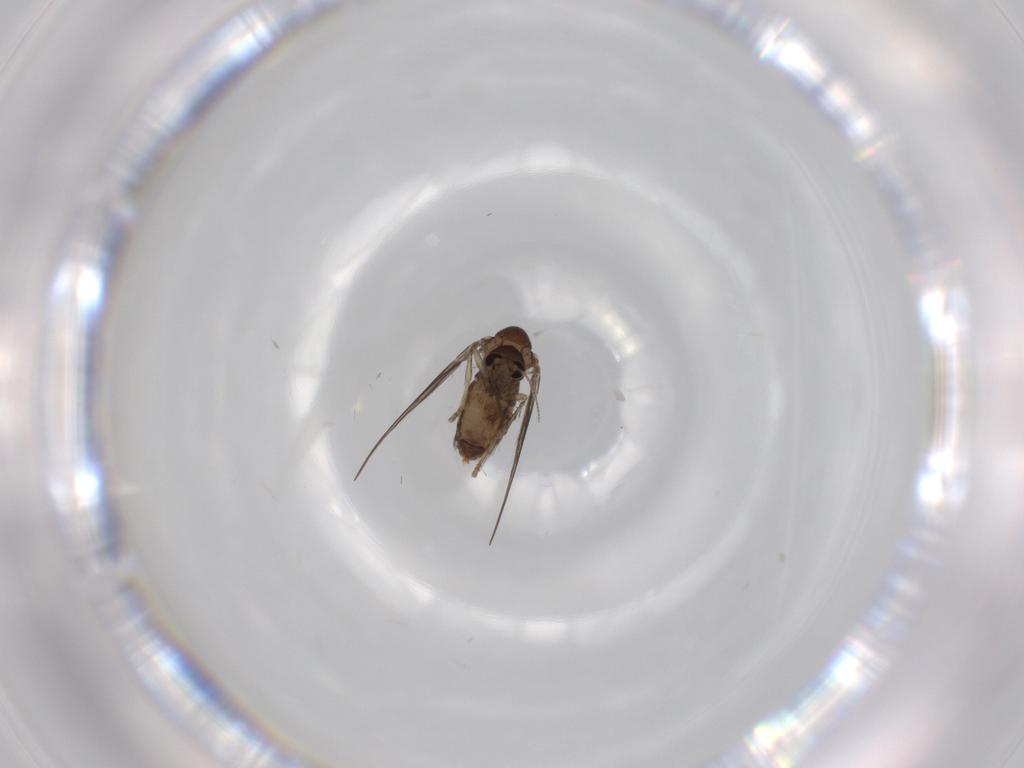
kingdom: Animalia
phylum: Arthropoda
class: Insecta
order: Diptera
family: Psychodidae
